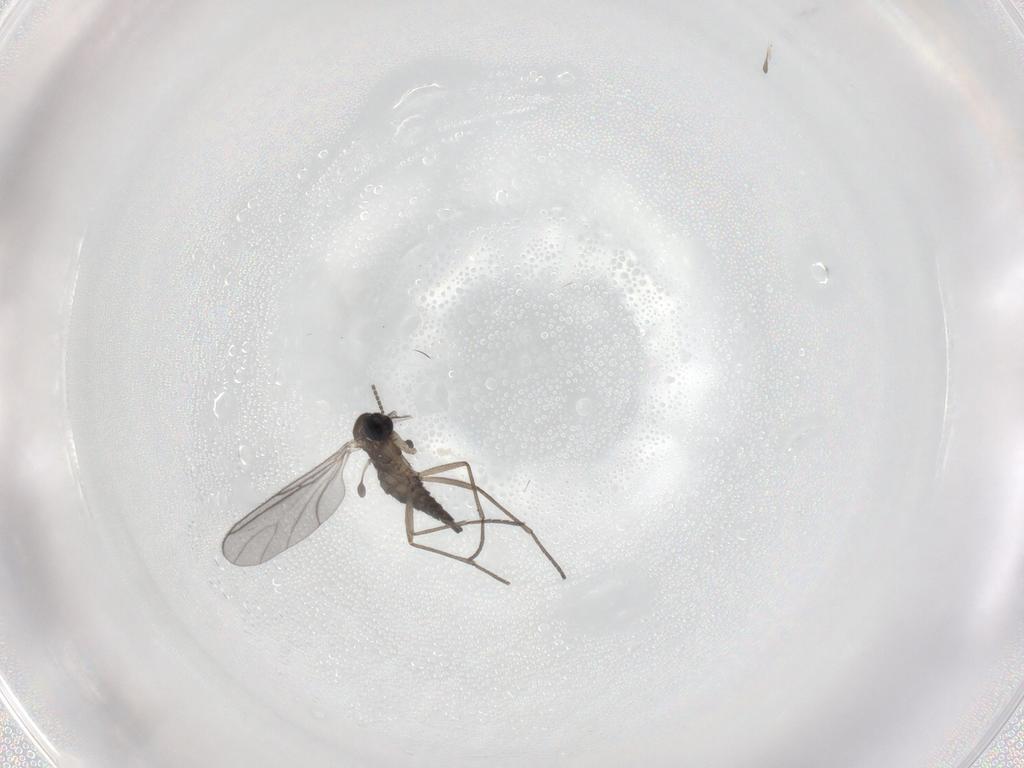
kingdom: Animalia
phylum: Arthropoda
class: Insecta
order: Diptera
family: Sciaridae
